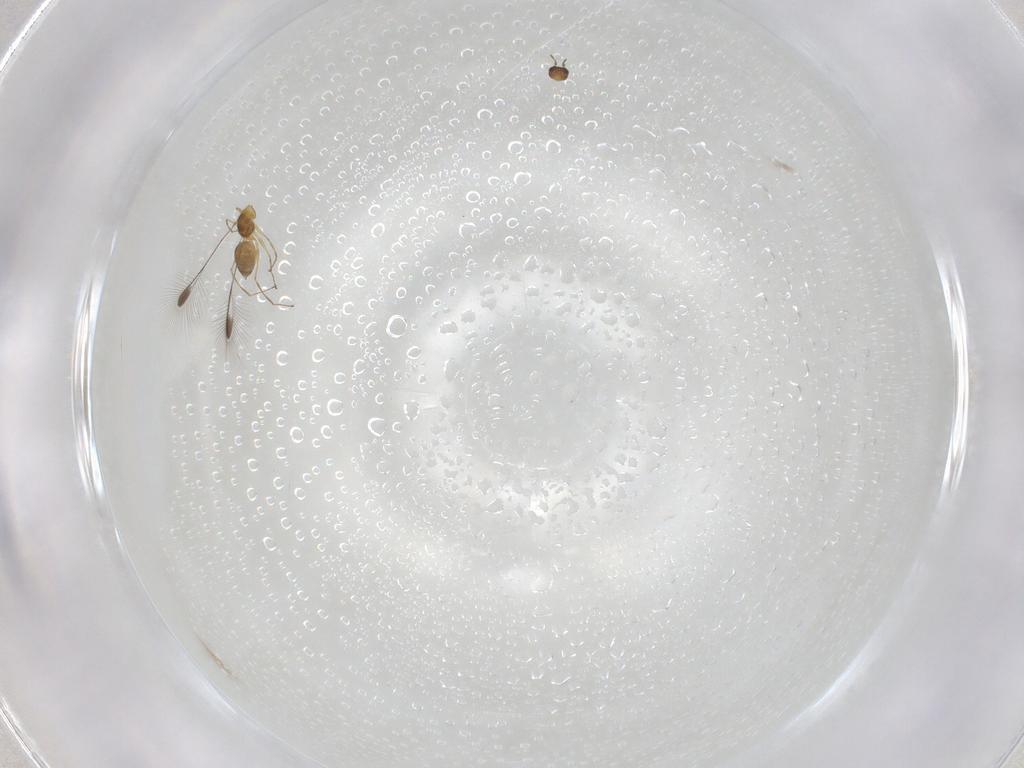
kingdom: Animalia
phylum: Arthropoda
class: Insecta
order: Hymenoptera
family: Mymaridae
